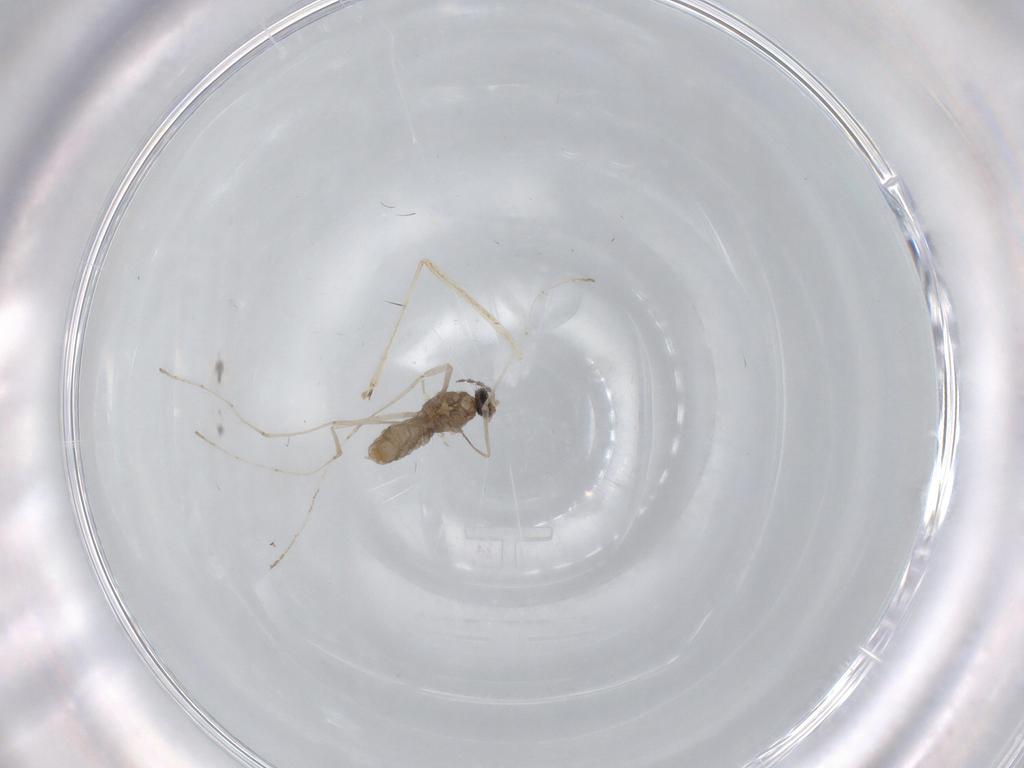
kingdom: Animalia
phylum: Arthropoda
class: Insecta
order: Diptera
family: Cecidomyiidae
